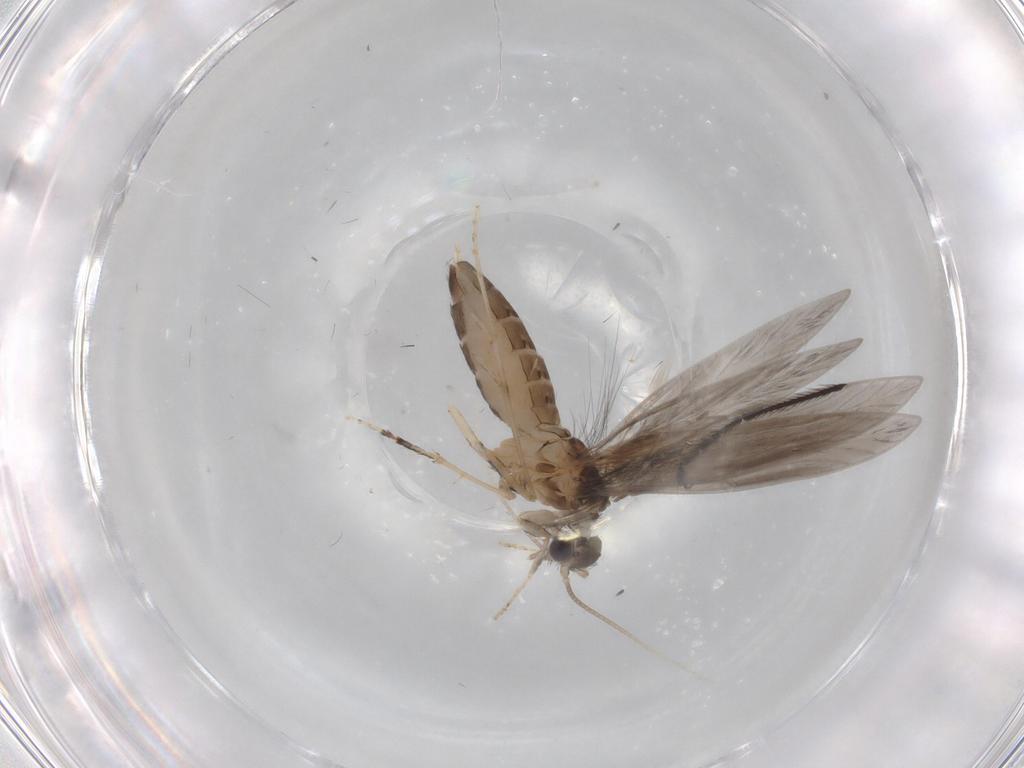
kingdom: Animalia
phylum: Arthropoda
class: Insecta
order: Trichoptera
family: Hydroptilidae
